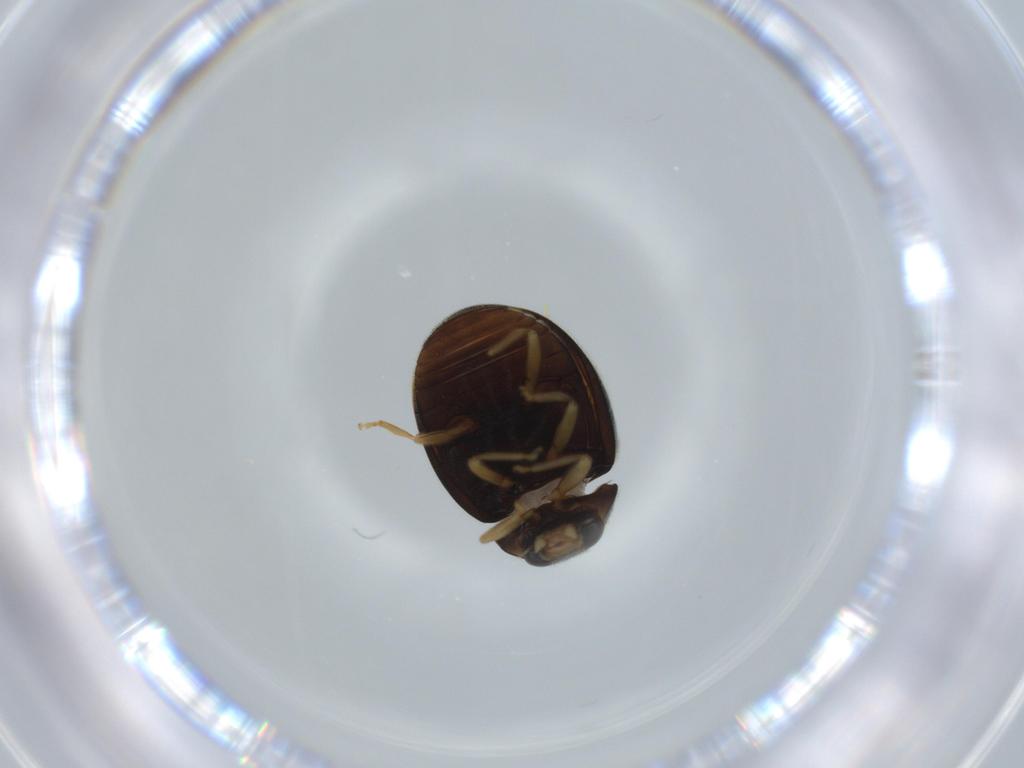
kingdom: Animalia
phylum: Arthropoda
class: Insecta
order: Coleoptera
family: Coccinellidae
